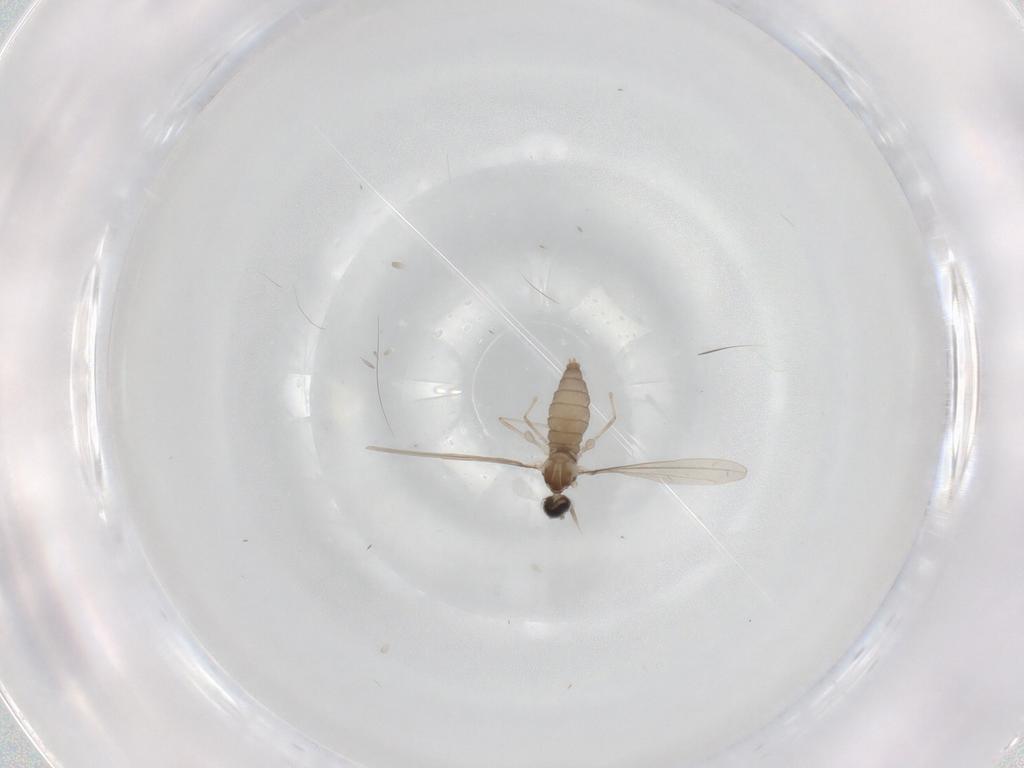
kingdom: Animalia
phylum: Arthropoda
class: Insecta
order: Diptera
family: Cecidomyiidae
